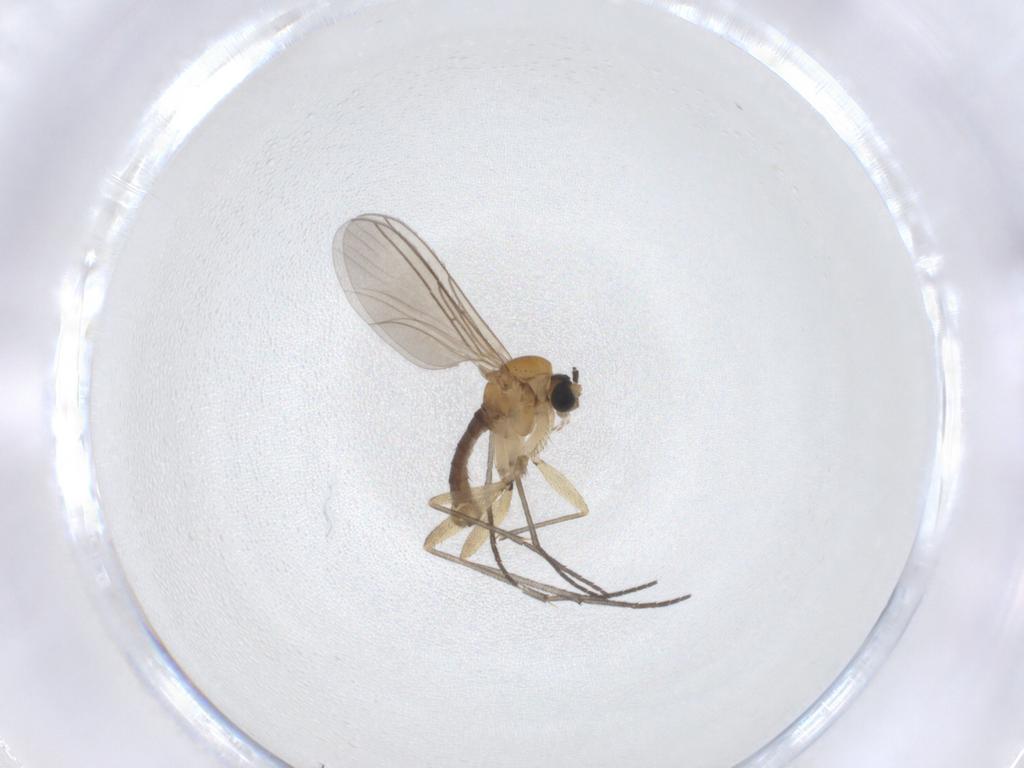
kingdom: Animalia
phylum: Arthropoda
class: Insecta
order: Diptera
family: Sciaridae
